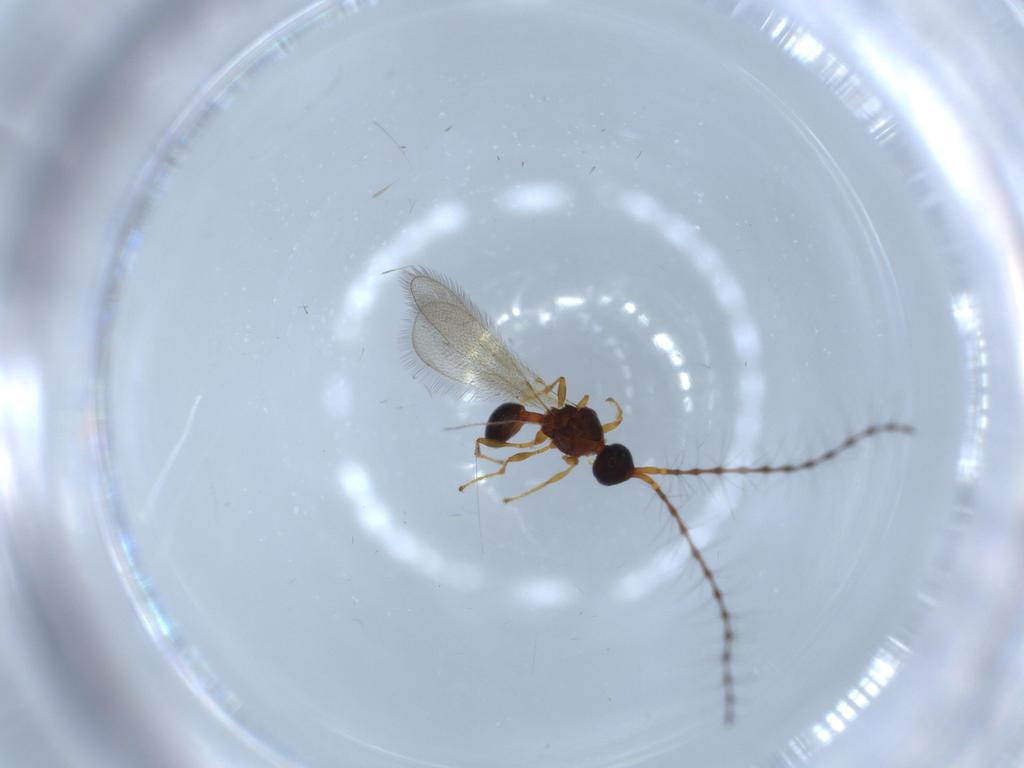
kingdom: Animalia
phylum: Arthropoda
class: Insecta
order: Hymenoptera
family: Diapriidae
